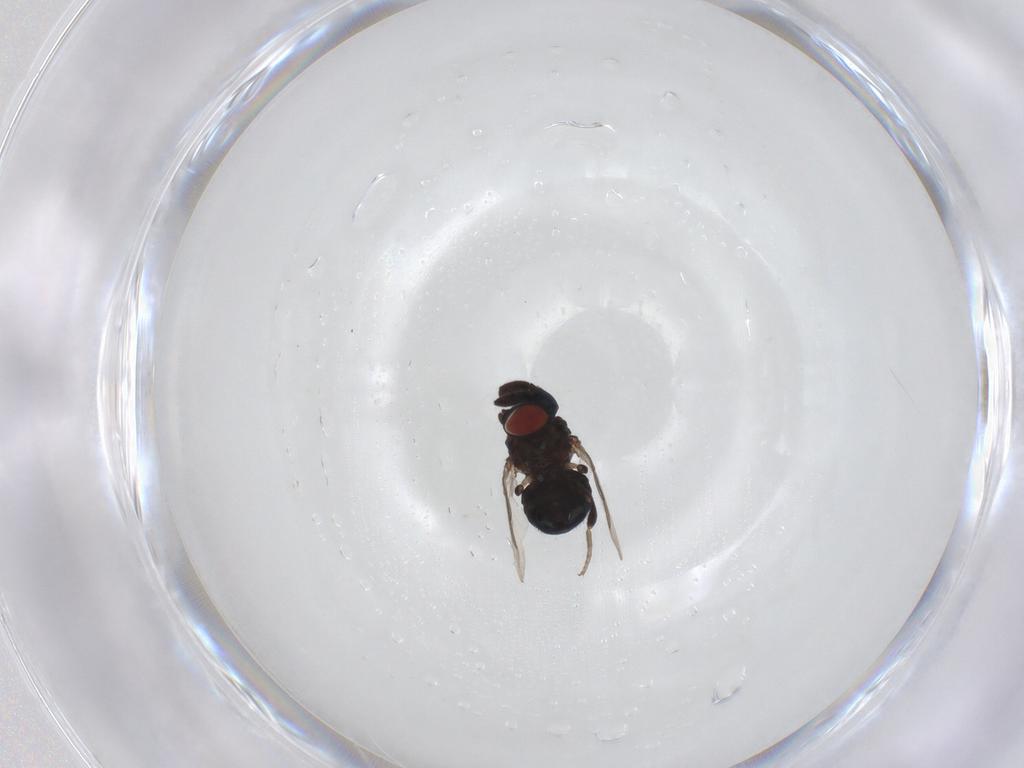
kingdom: Animalia
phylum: Arthropoda
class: Insecta
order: Diptera
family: Cryptochetidae
